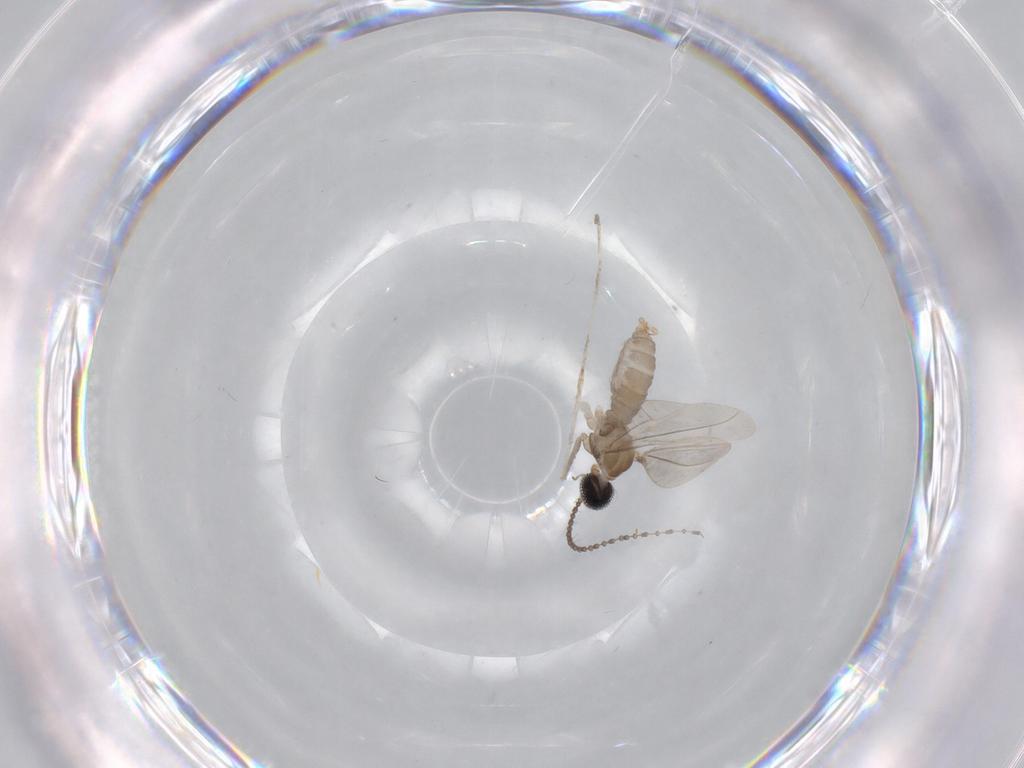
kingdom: Animalia
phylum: Arthropoda
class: Insecta
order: Diptera
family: Cecidomyiidae
